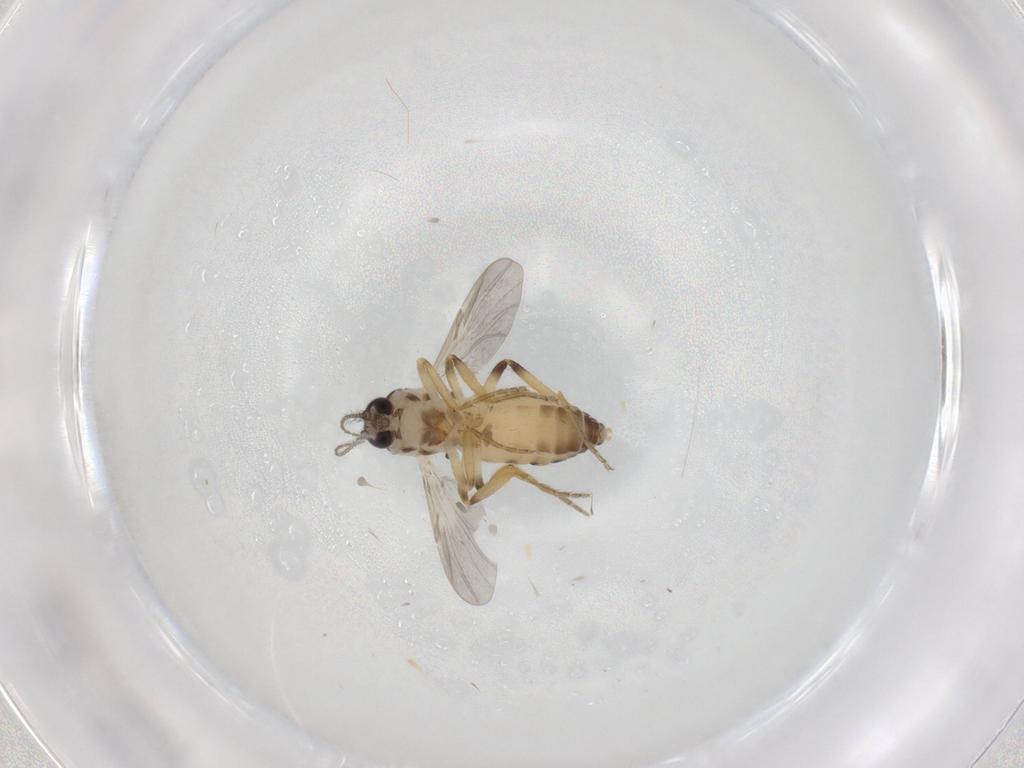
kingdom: Animalia
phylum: Arthropoda
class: Insecta
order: Diptera
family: Ceratopogonidae
